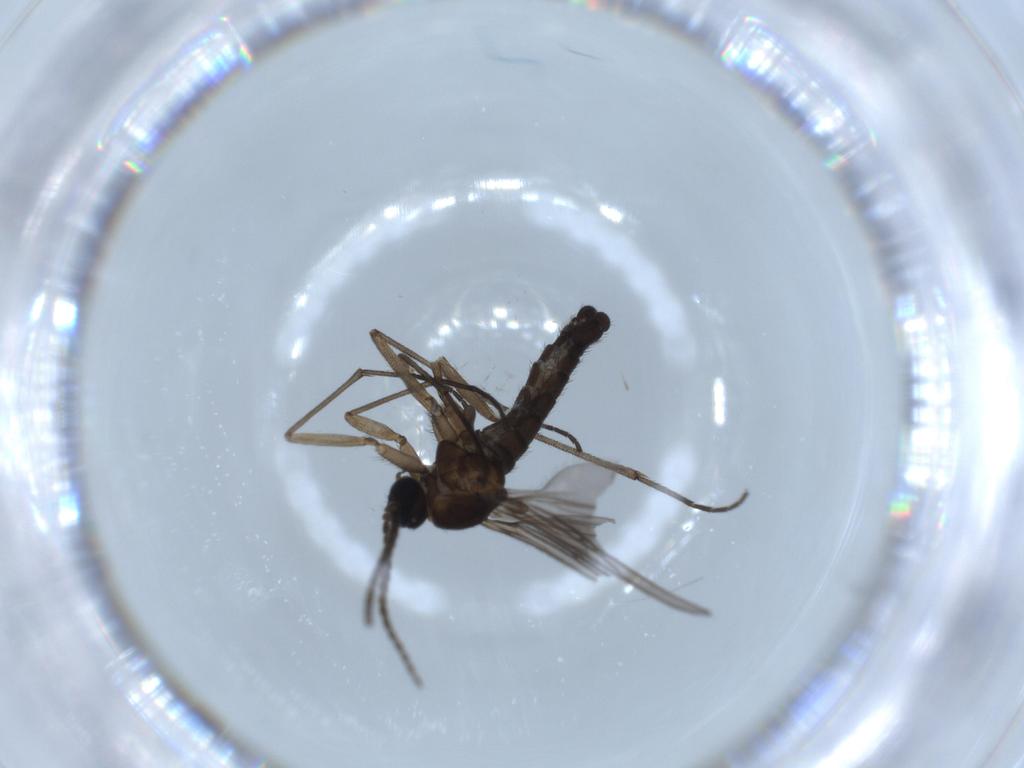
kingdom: Animalia
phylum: Arthropoda
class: Insecta
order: Diptera
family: Sciaridae
